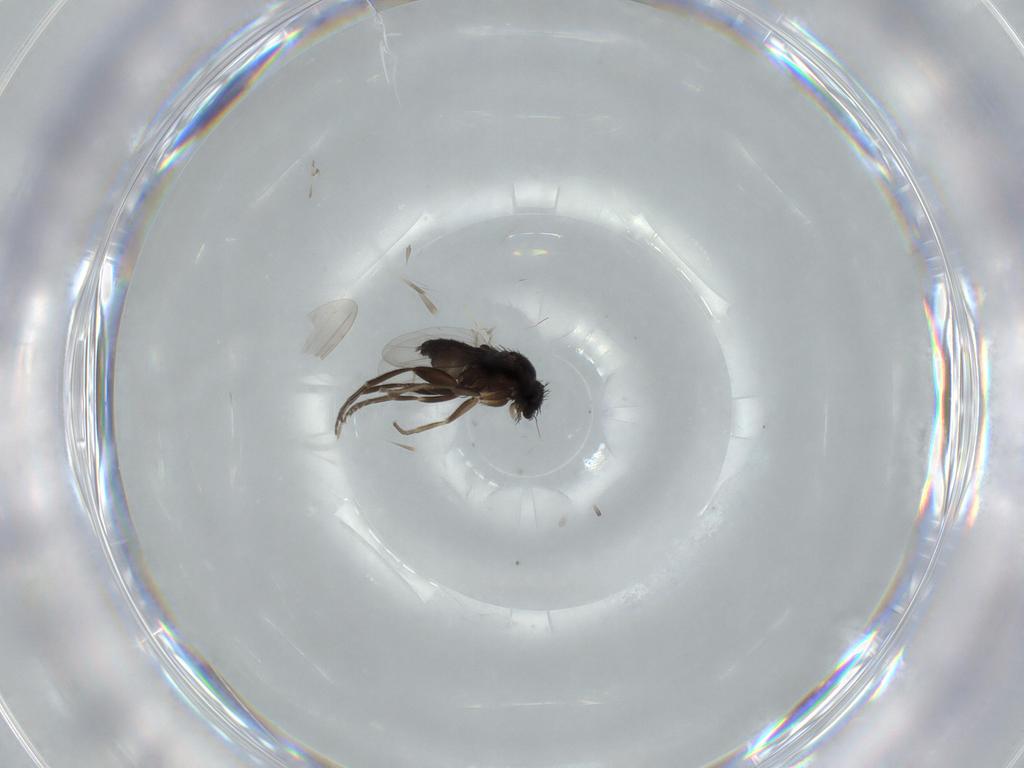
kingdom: Animalia
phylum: Arthropoda
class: Insecta
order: Diptera
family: Phoridae
